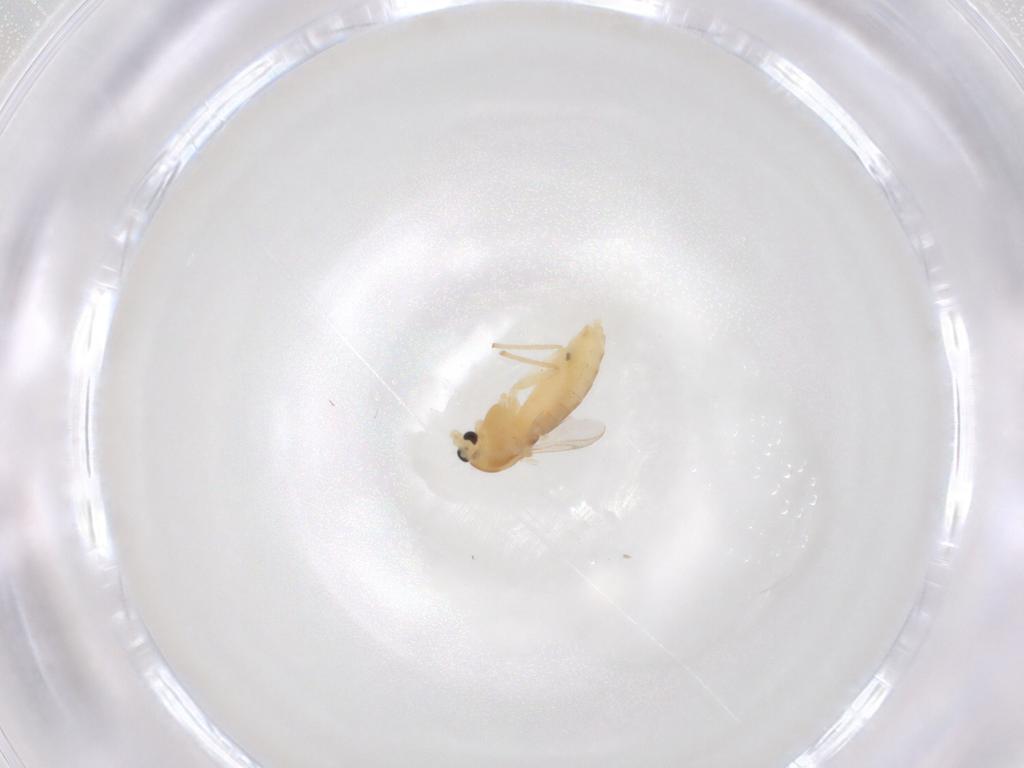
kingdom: Animalia
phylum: Arthropoda
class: Insecta
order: Diptera
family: Chironomidae
